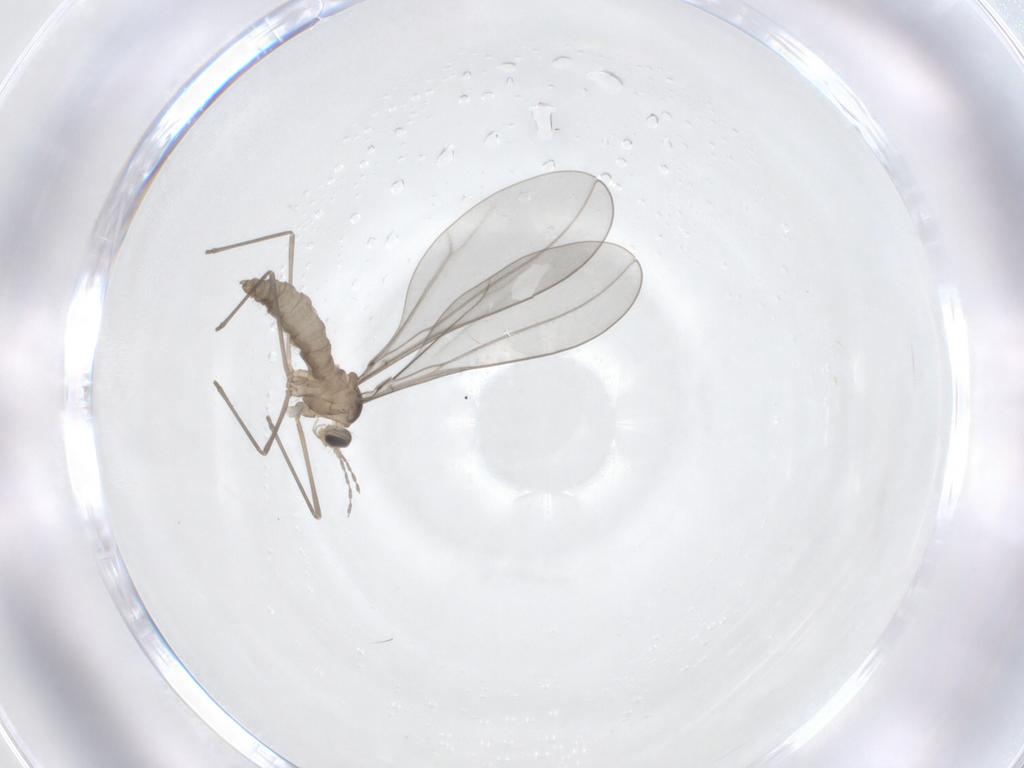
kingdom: Animalia
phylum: Arthropoda
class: Insecta
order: Diptera
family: Cecidomyiidae
